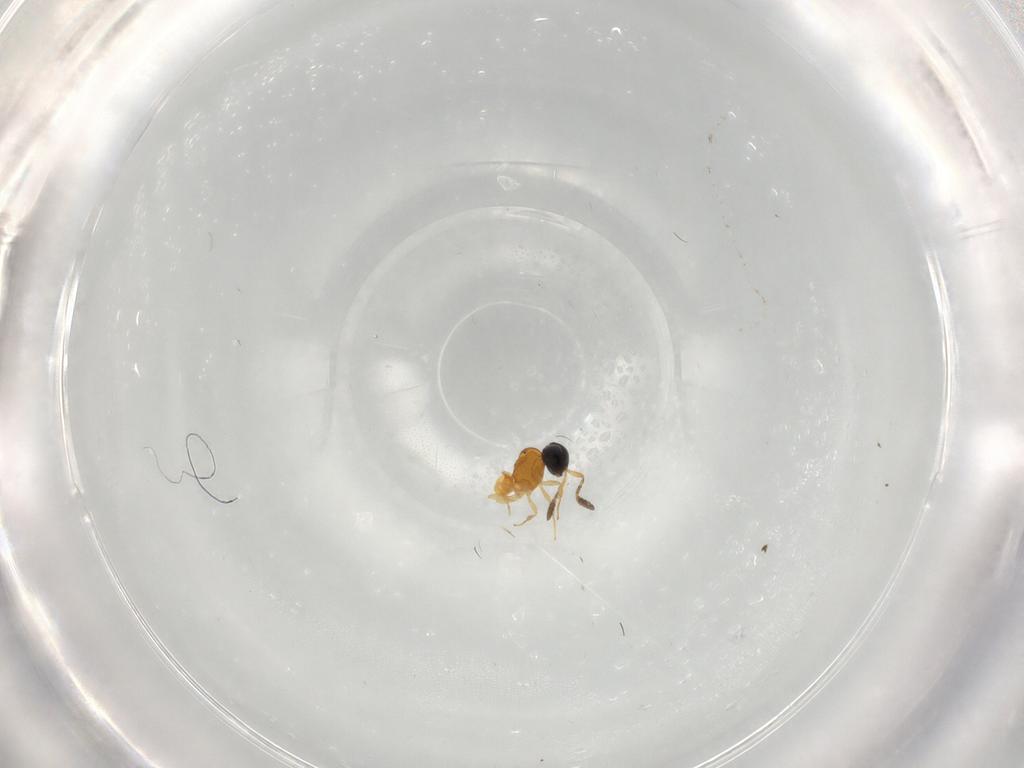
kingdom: Animalia
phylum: Arthropoda
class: Insecta
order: Hymenoptera
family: Scelionidae
